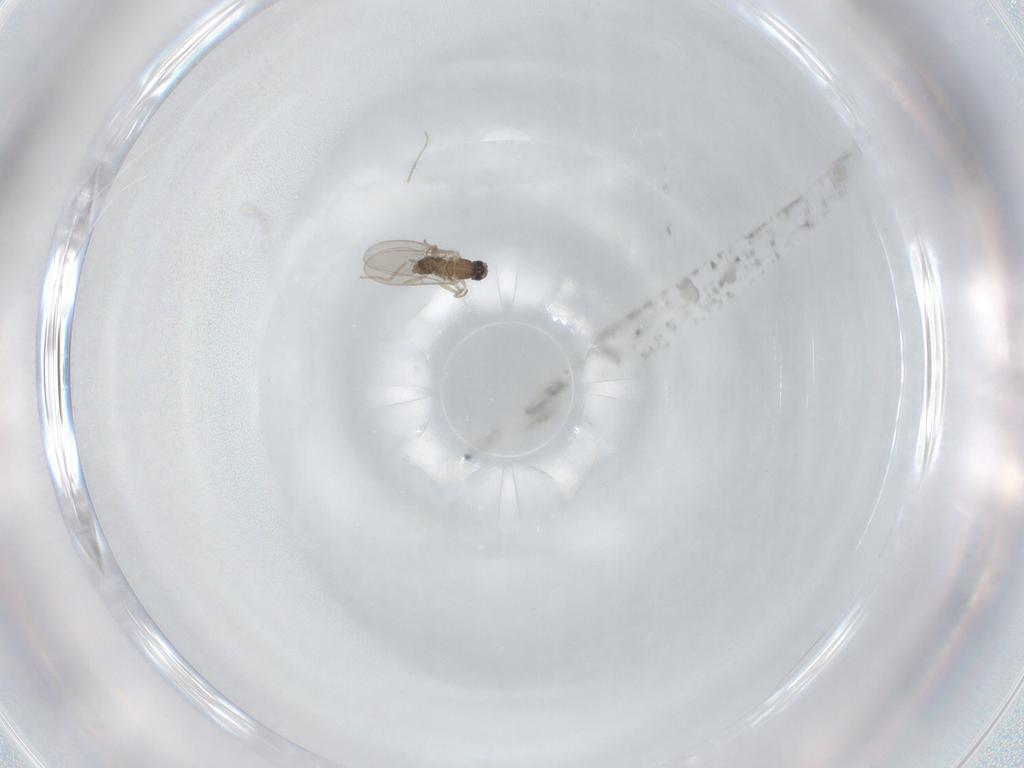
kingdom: Animalia
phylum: Arthropoda
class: Insecta
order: Diptera
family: Chironomidae
